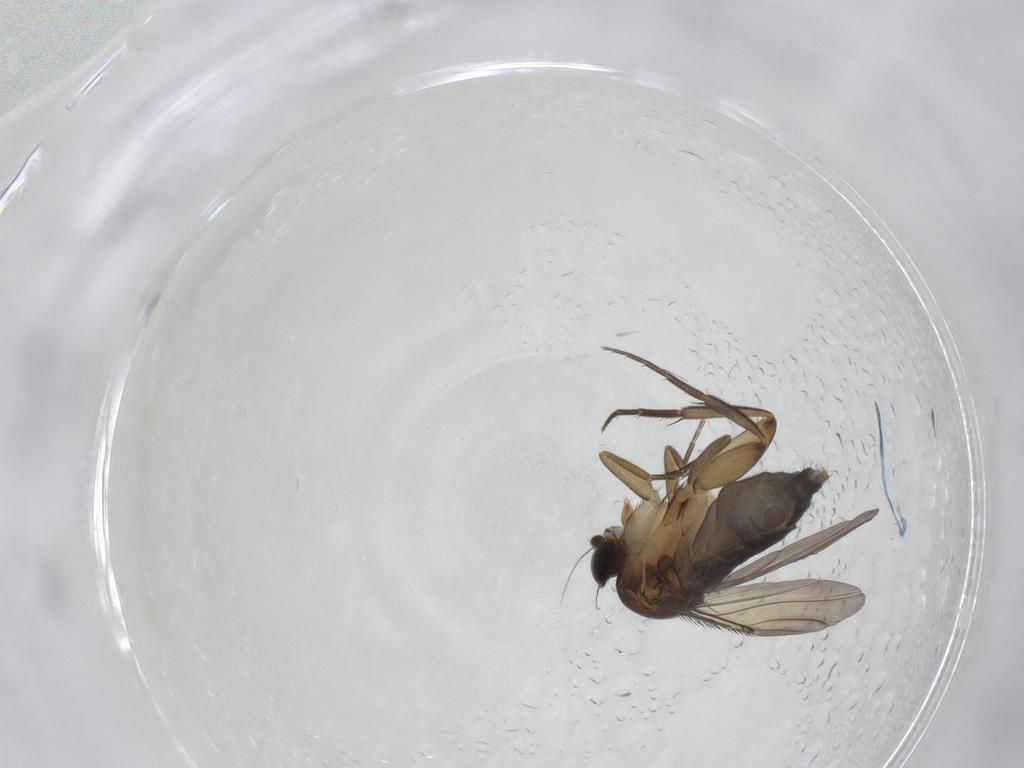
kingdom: Animalia
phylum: Arthropoda
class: Insecta
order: Diptera
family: Phoridae
